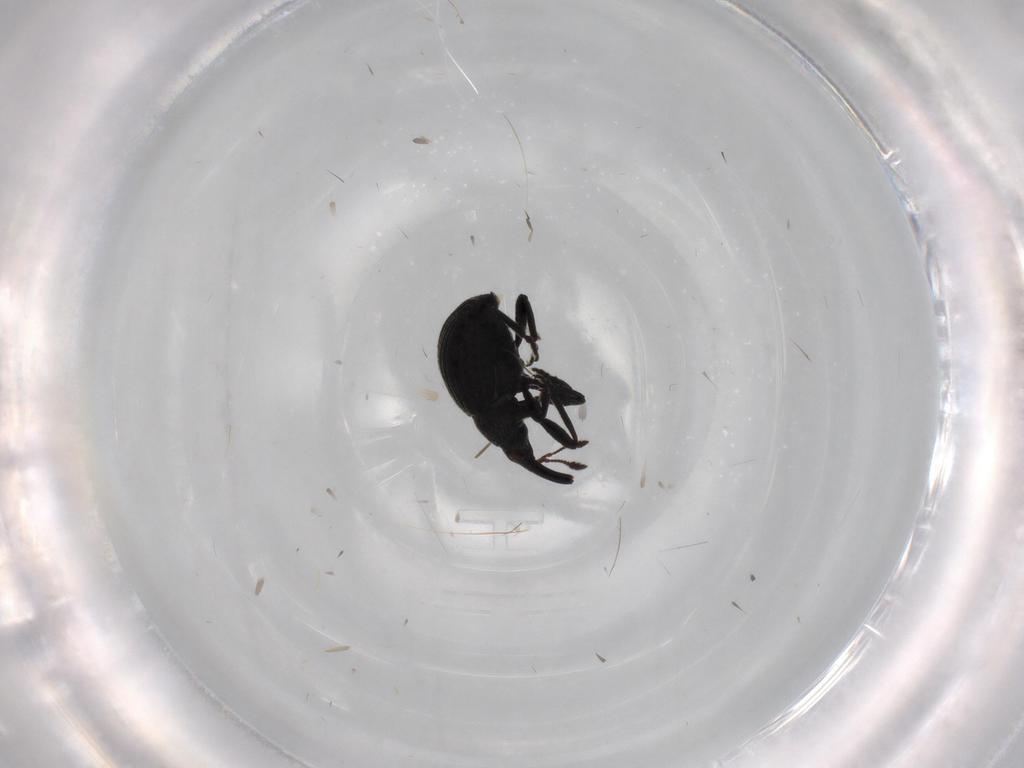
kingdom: Animalia
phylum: Arthropoda
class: Insecta
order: Coleoptera
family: Brentidae
